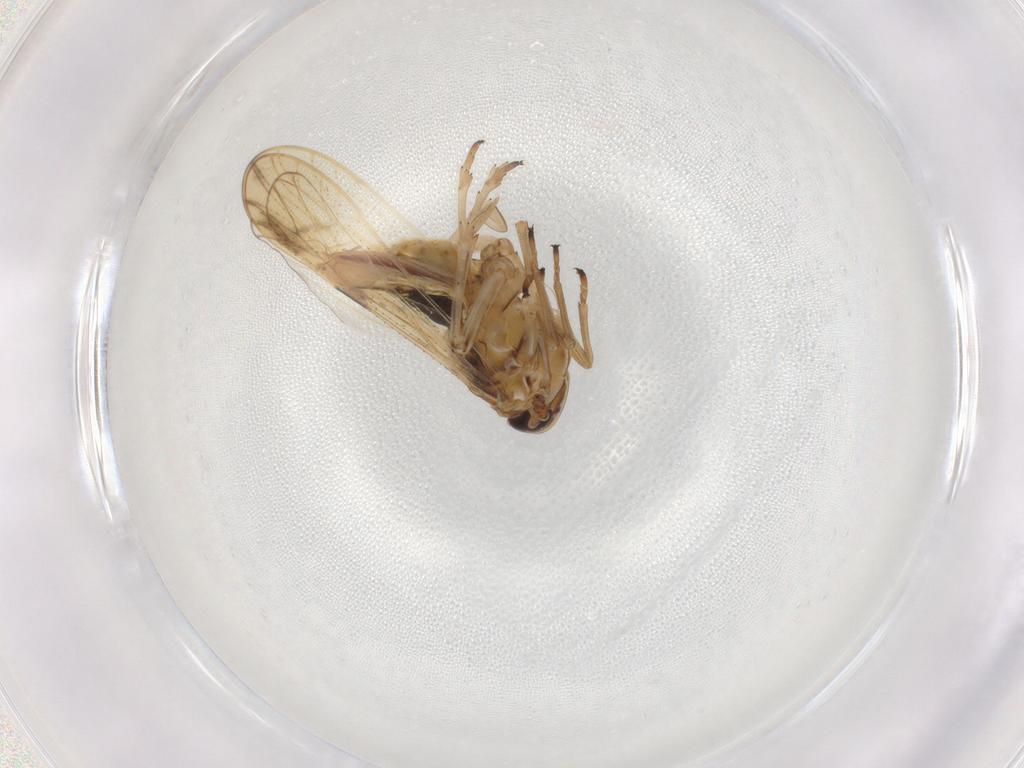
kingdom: Animalia
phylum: Arthropoda
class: Insecta
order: Hemiptera
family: Delphacidae
